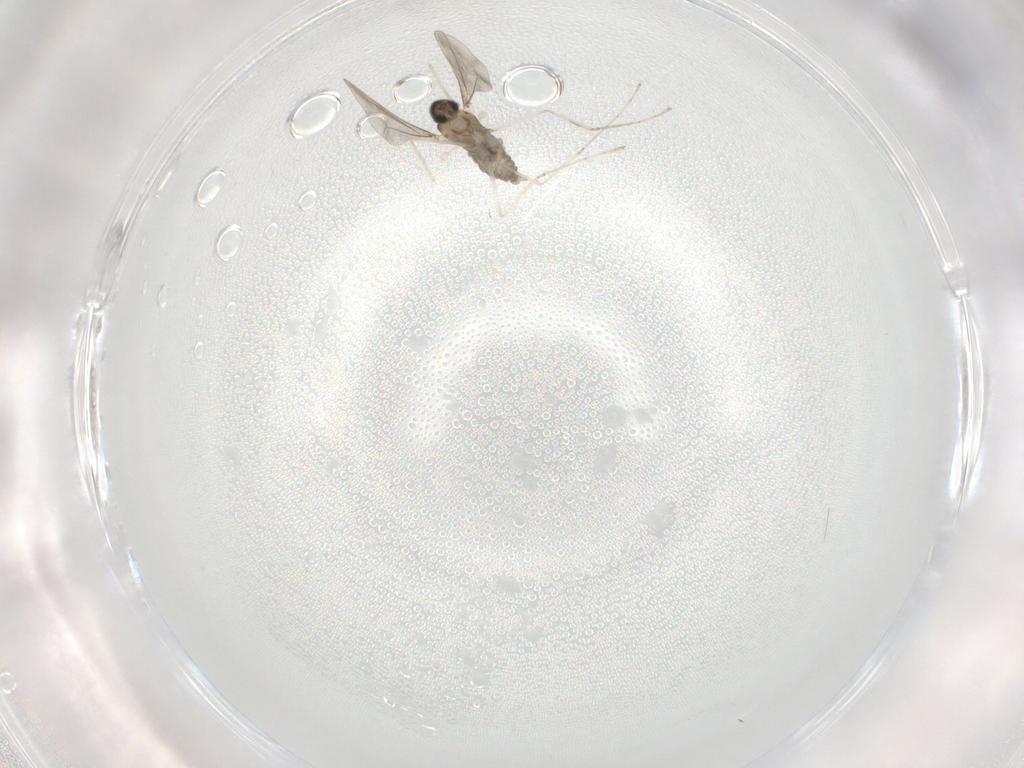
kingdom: Animalia
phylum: Arthropoda
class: Insecta
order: Diptera
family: Cecidomyiidae
